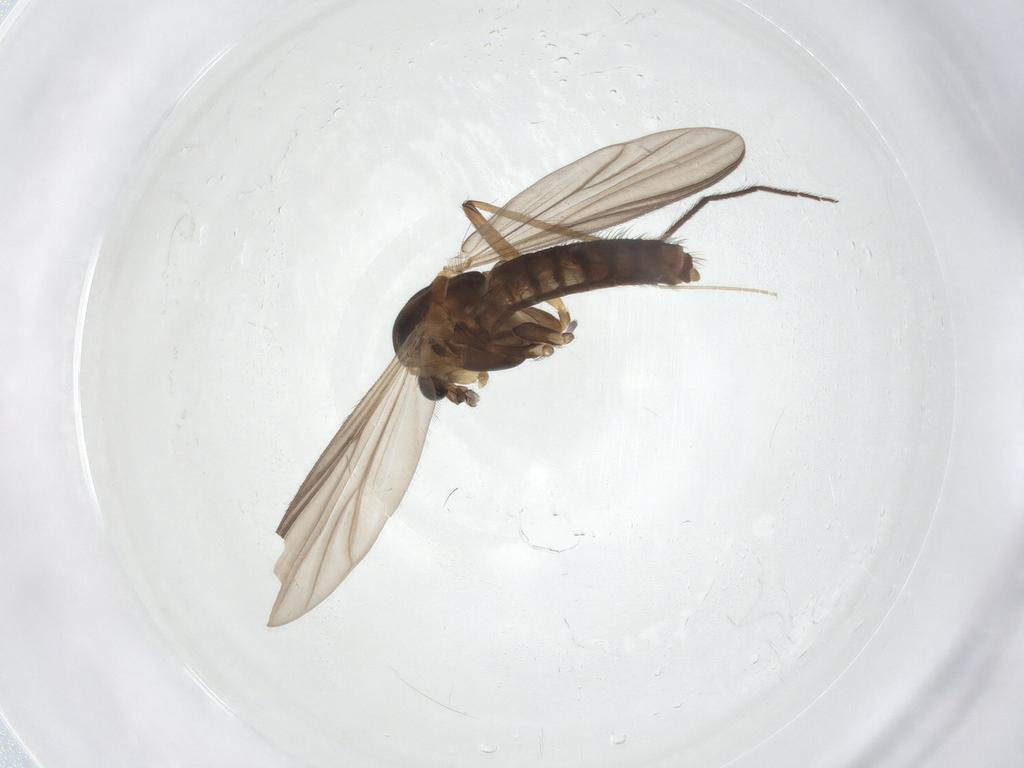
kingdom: Animalia
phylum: Arthropoda
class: Insecta
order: Diptera
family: Chironomidae
